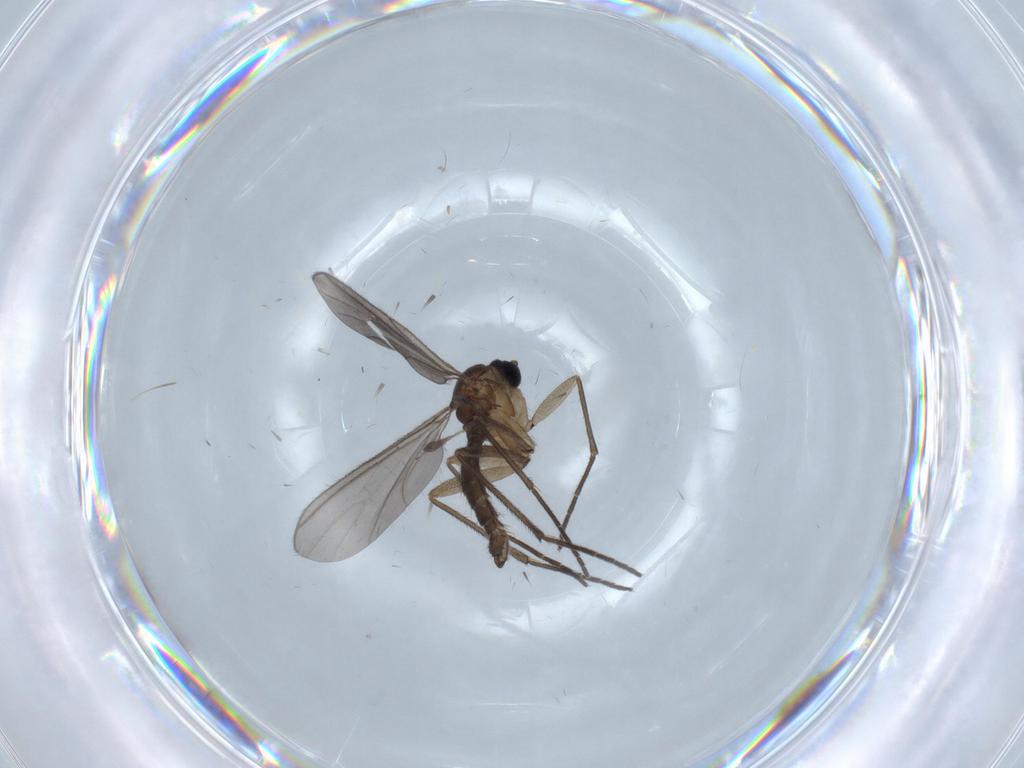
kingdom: Animalia
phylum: Arthropoda
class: Insecta
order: Diptera
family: Sciaridae
